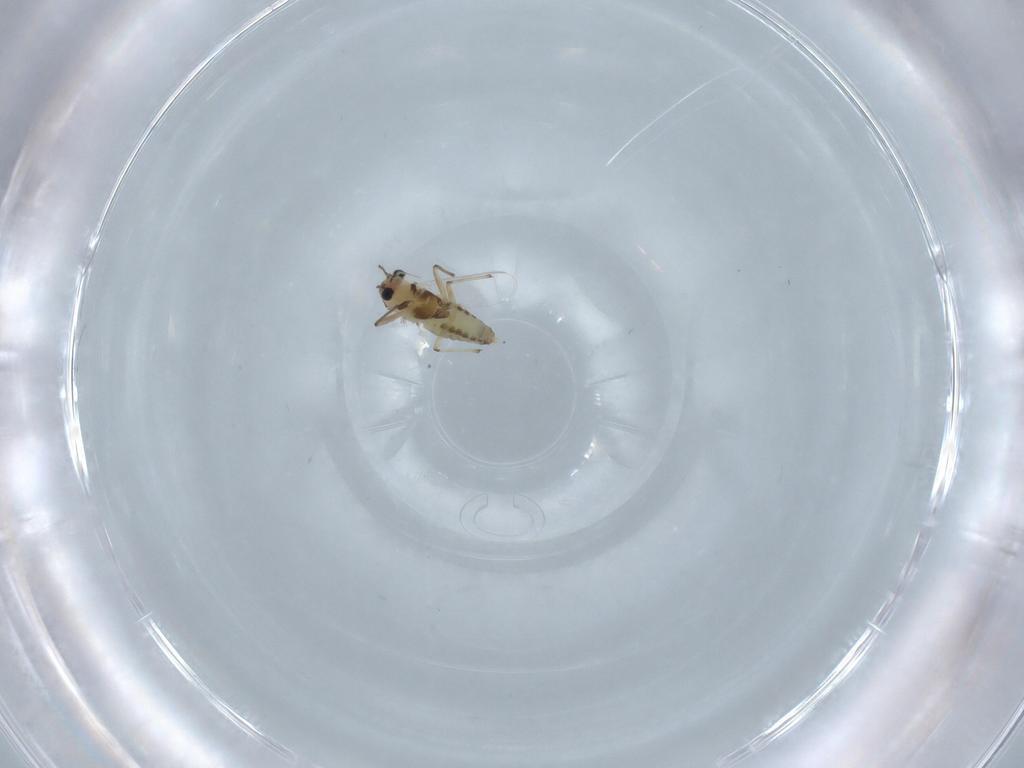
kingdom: Animalia
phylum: Arthropoda
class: Insecta
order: Diptera
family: Chironomidae
